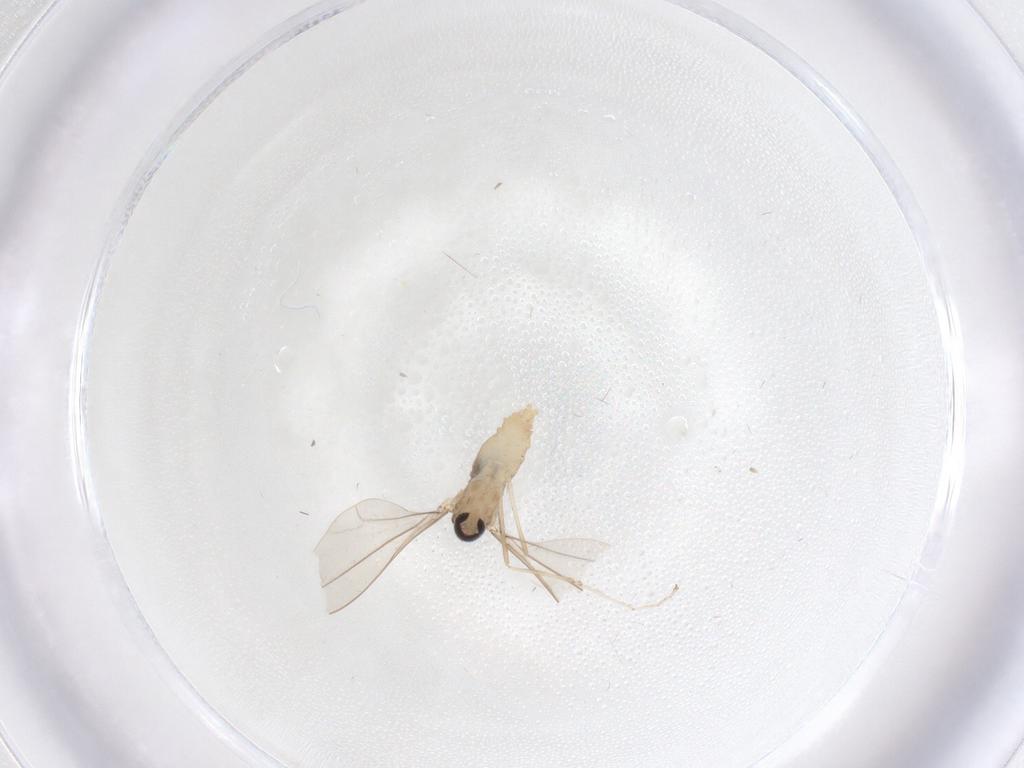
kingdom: Animalia
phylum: Arthropoda
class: Insecta
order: Diptera
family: Cecidomyiidae
